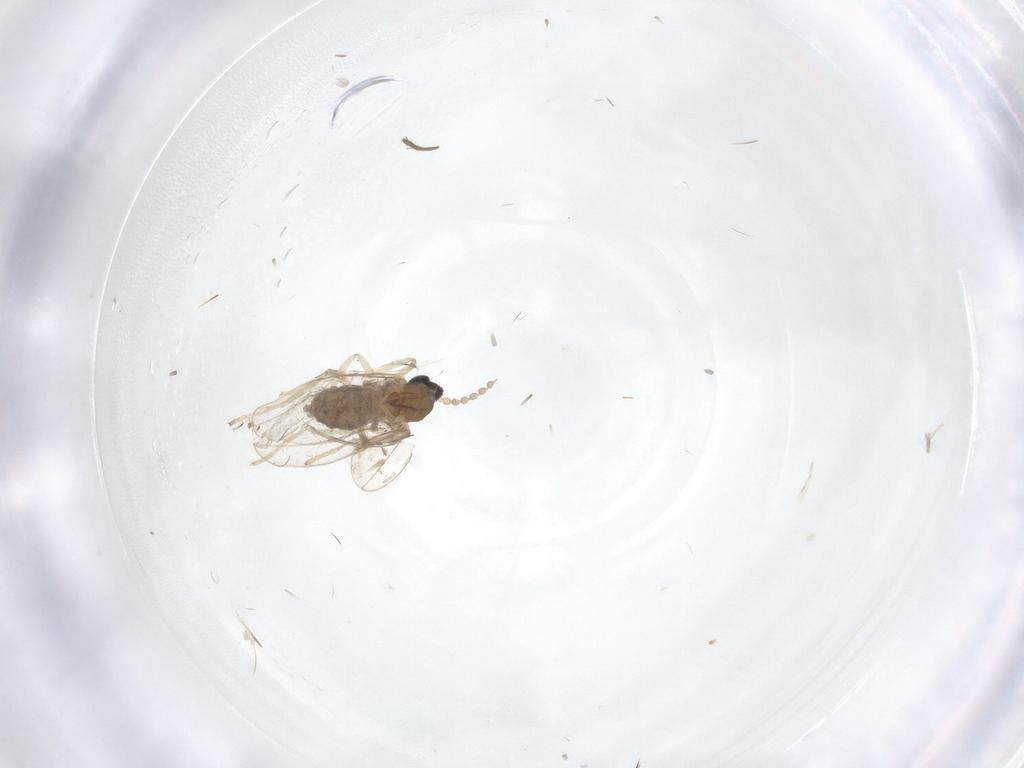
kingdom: Animalia
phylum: Arthropoda
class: Insecta
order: Diptera
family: Cecidomyiidae
